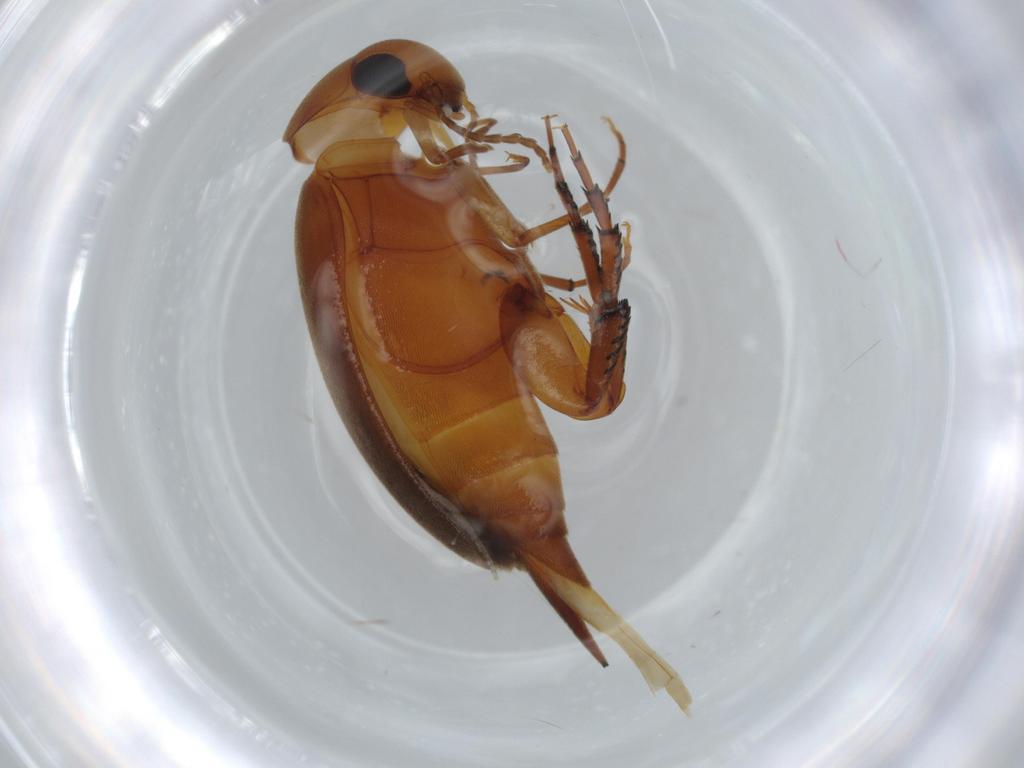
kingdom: Animalia
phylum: Arthropoda
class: Insecta
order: Coleoptera
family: Mordellidae
